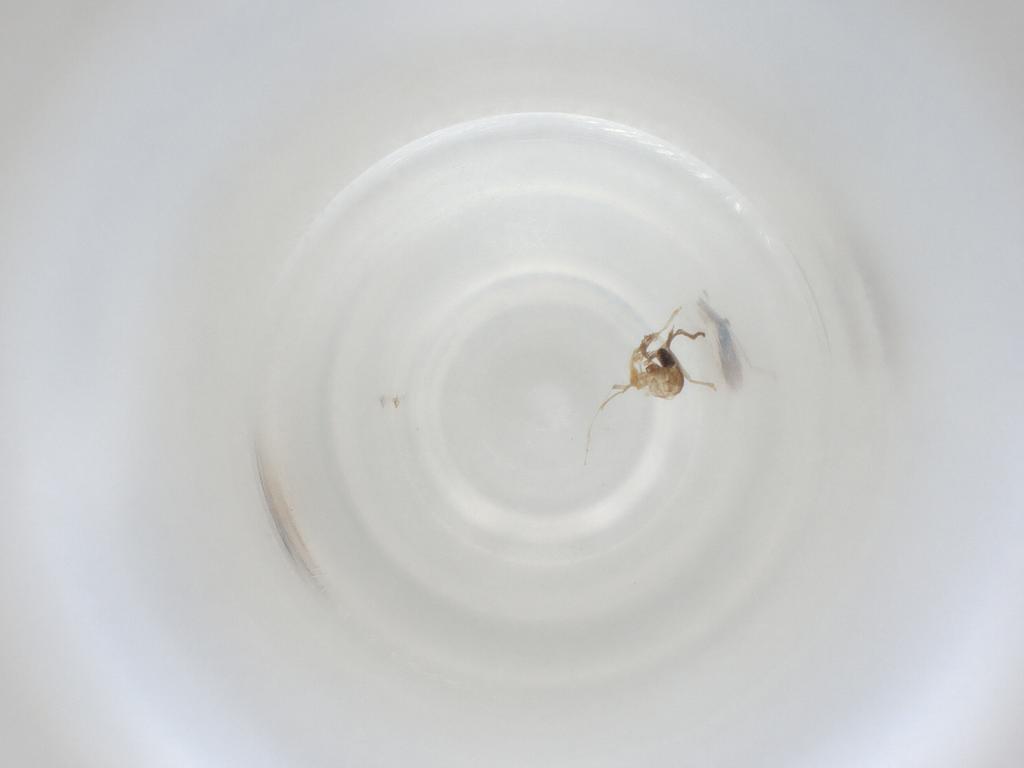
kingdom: Animalia
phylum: Arthropoda
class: Insecta
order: Diptera
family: Cecidomyiidae
